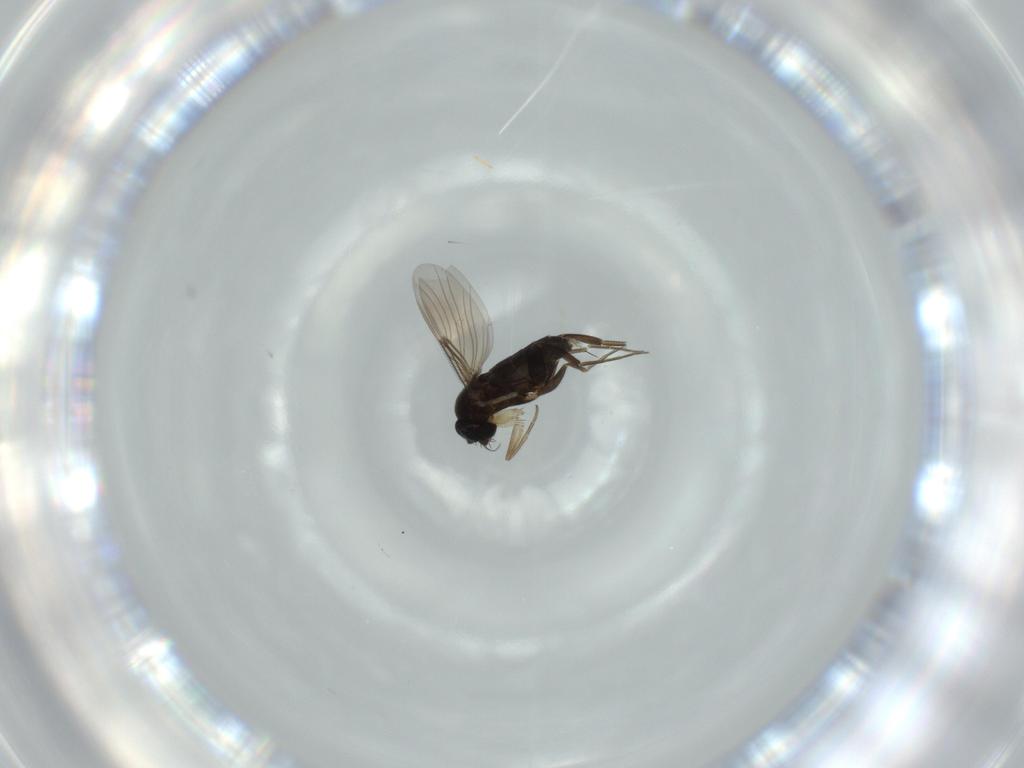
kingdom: Animalia
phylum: Arthropoda
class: Insecta
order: Diptera
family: Phoridae
